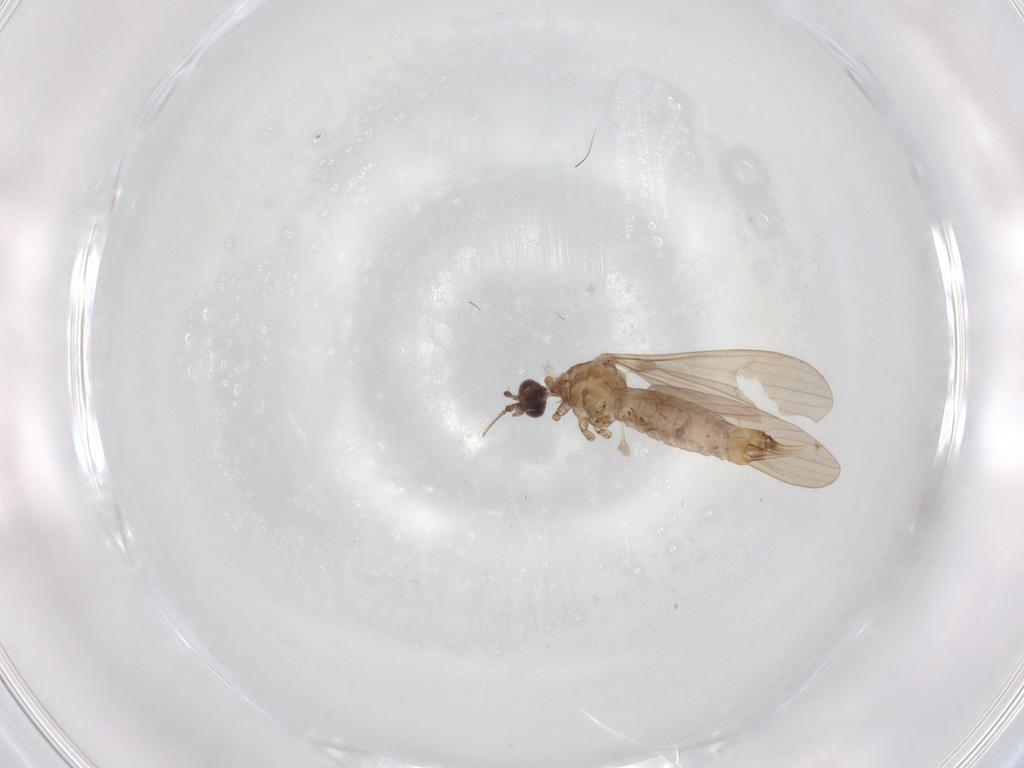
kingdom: Animalia
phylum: Arthropoda
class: Insecta
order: Diptera
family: Limoniidae
